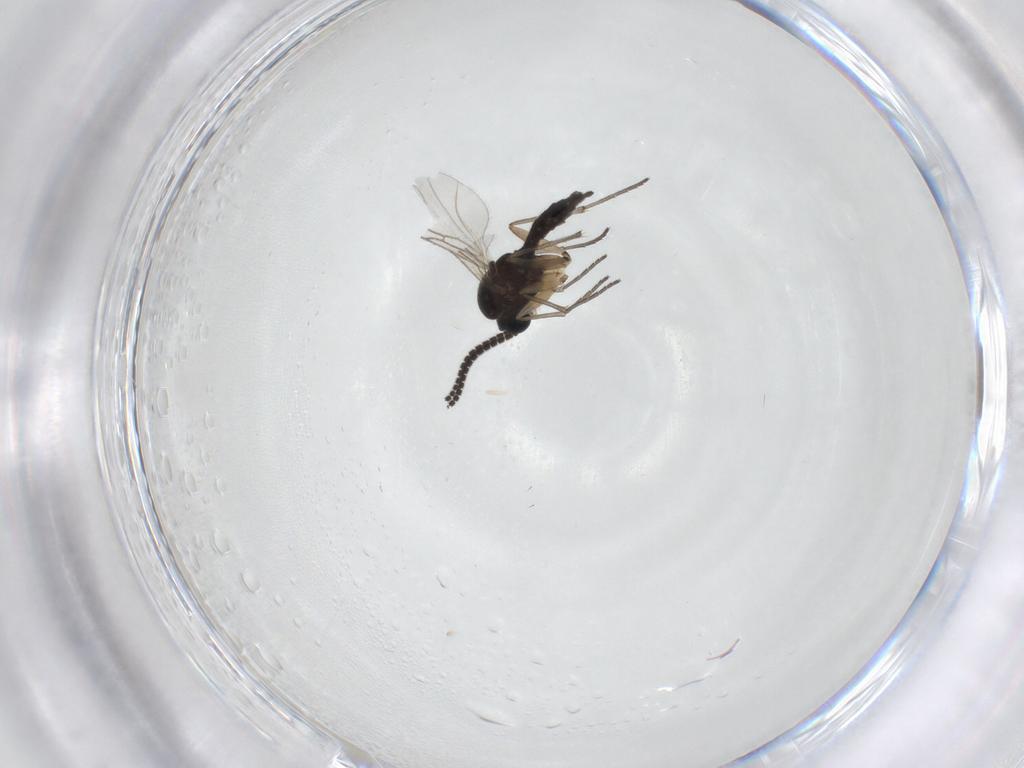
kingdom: Animalia
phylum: Arthropoda
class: Insecta
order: Diptera
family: Sciaridae
